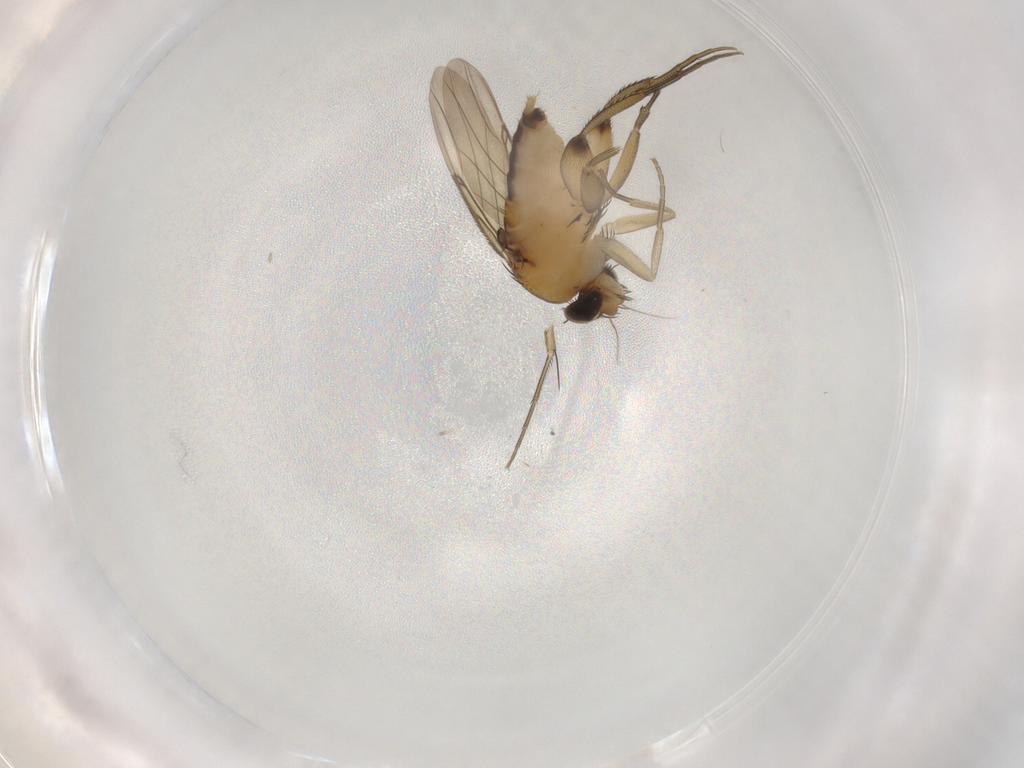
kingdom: Animalia
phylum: Arthropoda
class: Insecta
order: Diptera
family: Phoridae
